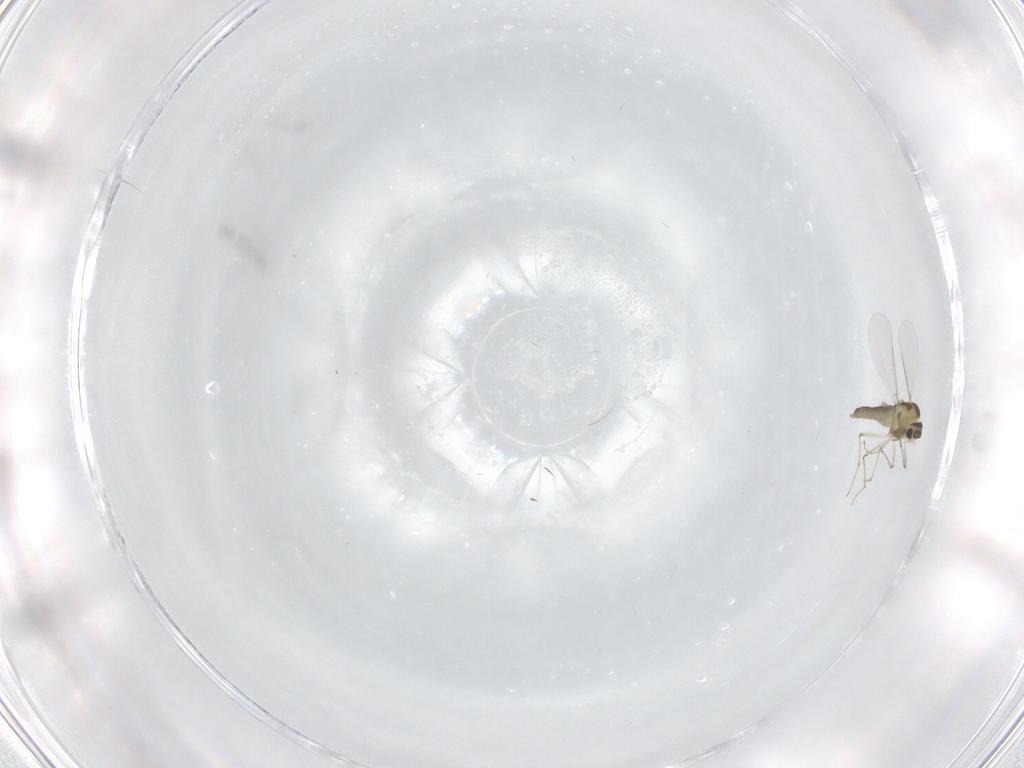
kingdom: Animalia
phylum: Arthropoda
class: Insecta
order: Diptera
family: Chironomidae
